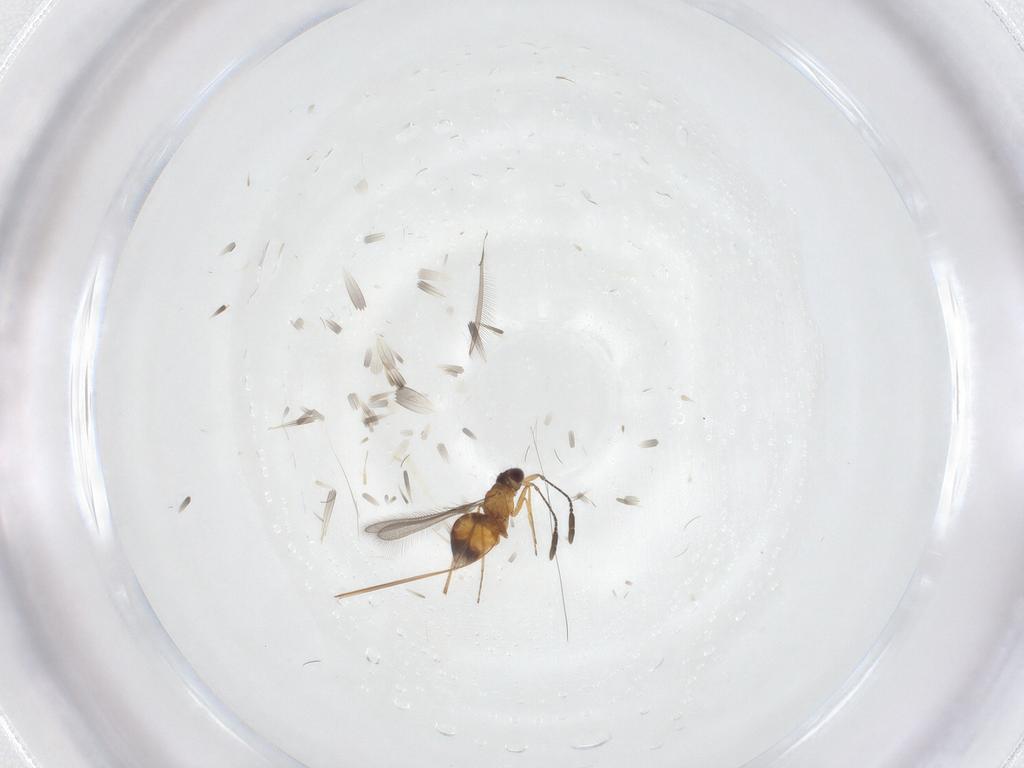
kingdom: Animalia
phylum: Arthropoda
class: Insecta
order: Hymenoptera
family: Mymaridae
